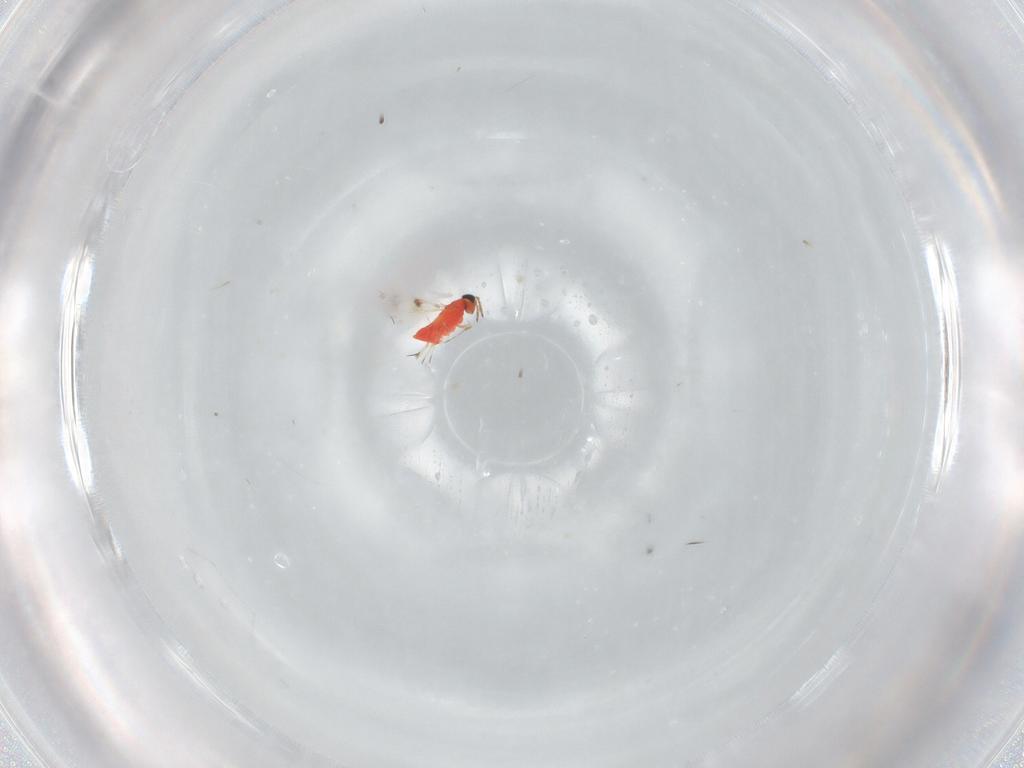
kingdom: Animalia
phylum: Arthropoda
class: Insecta
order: Hymenoptera
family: Trichogrammatidae
